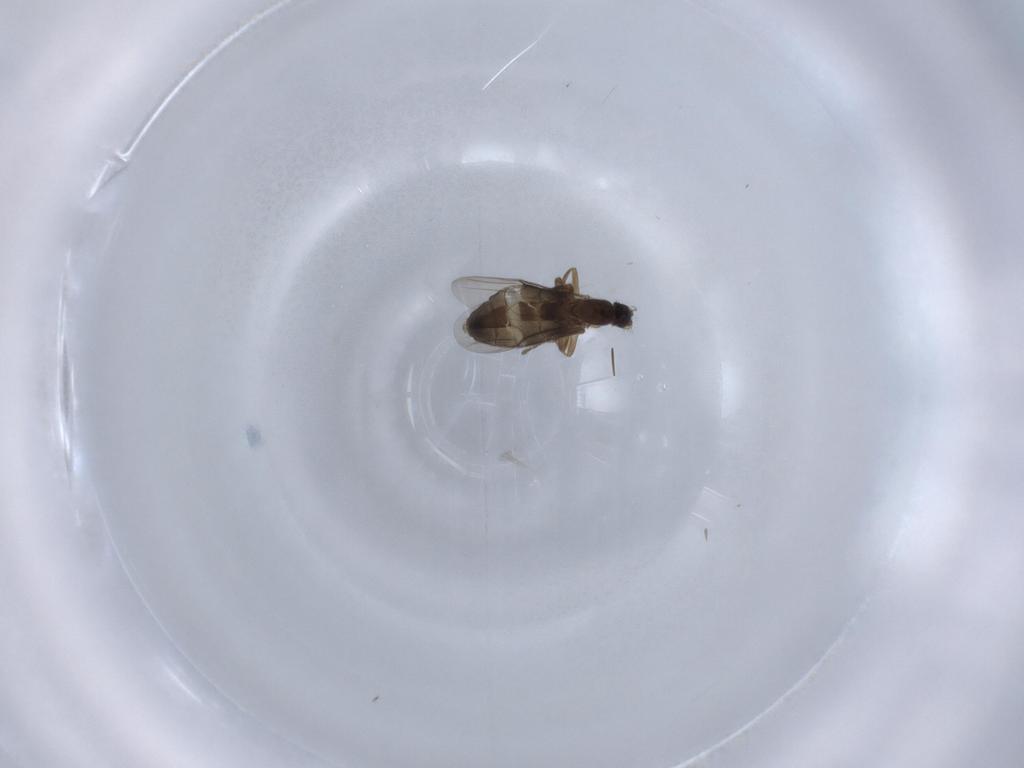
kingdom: Animalia
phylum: Arthropoda
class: Insecta
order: Diptera
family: Phoridae
